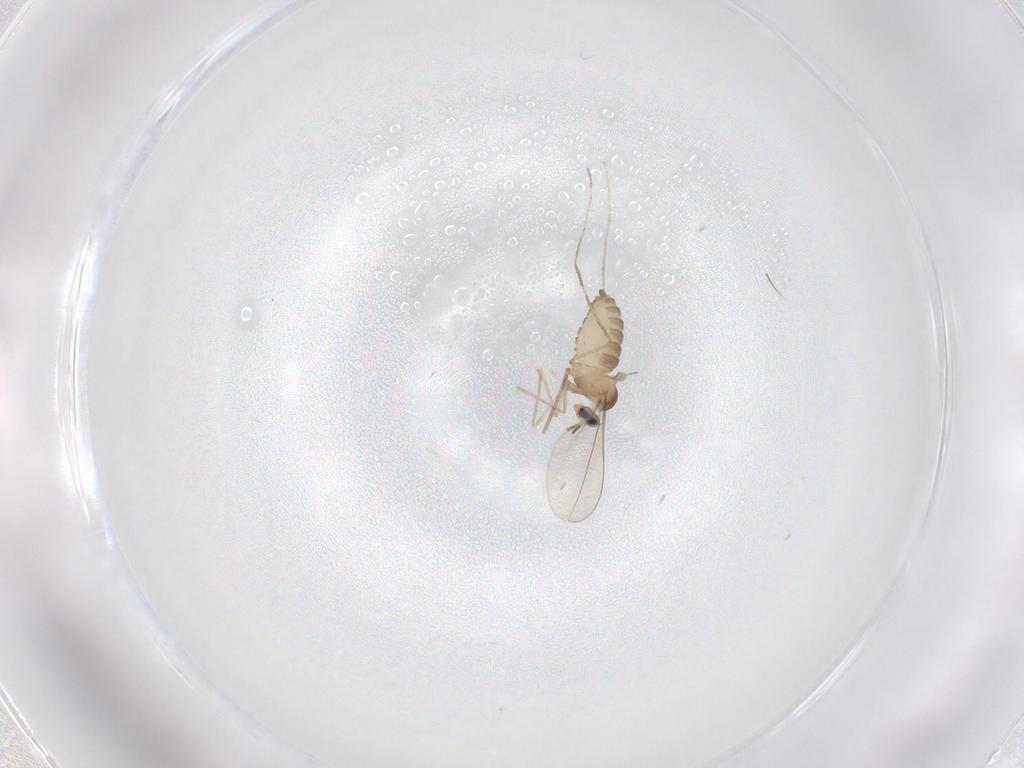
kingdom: Animalia
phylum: Arthropoda
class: Insecta
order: Diptera
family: Cecidomyiidae
